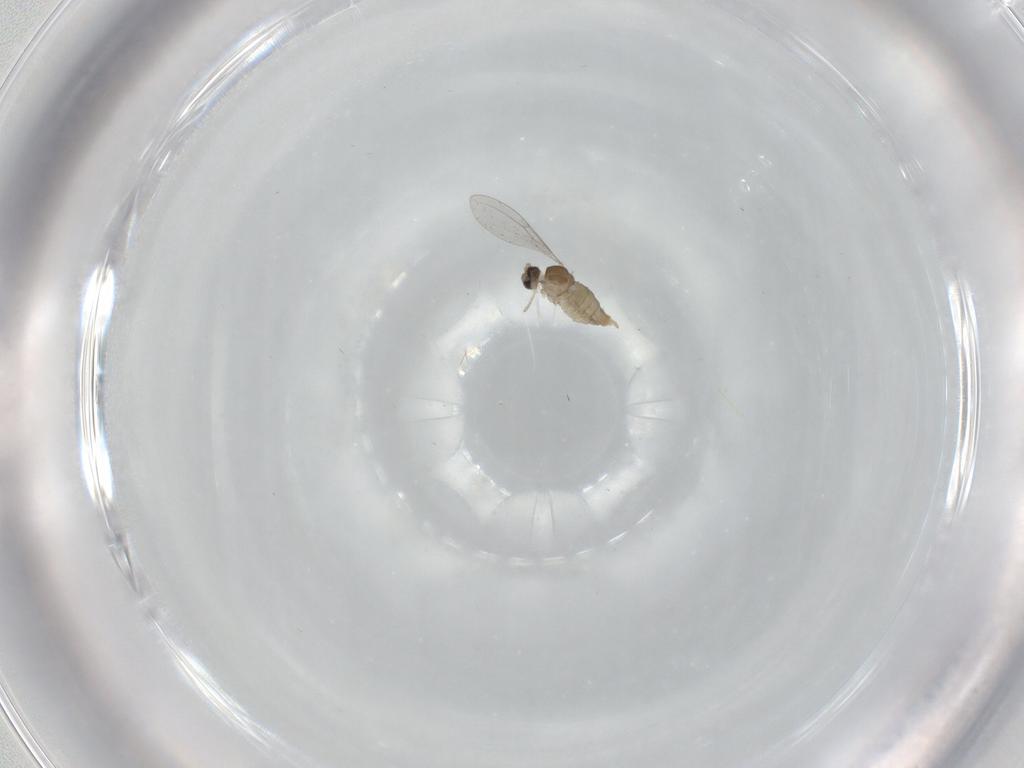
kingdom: Animalia
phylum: Arthropoda
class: Insecta
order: Diptera
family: Cecidomyiidae
